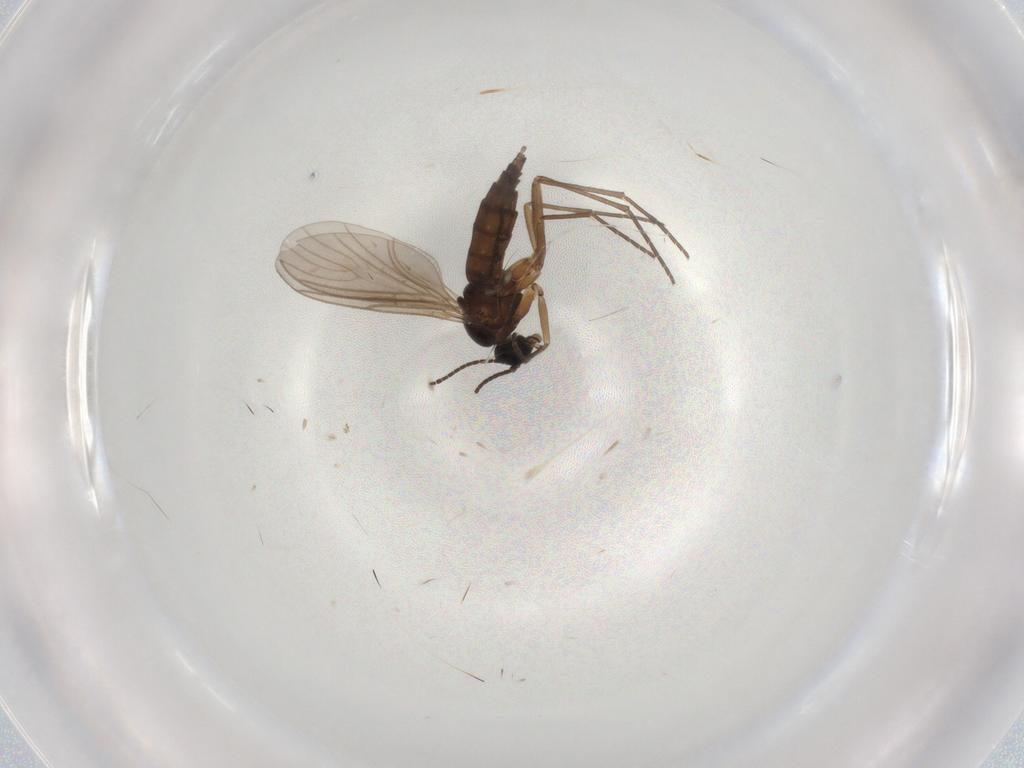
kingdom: Animalia
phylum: Arthropoda
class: Insecta
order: Diptera
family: Sciaridae
